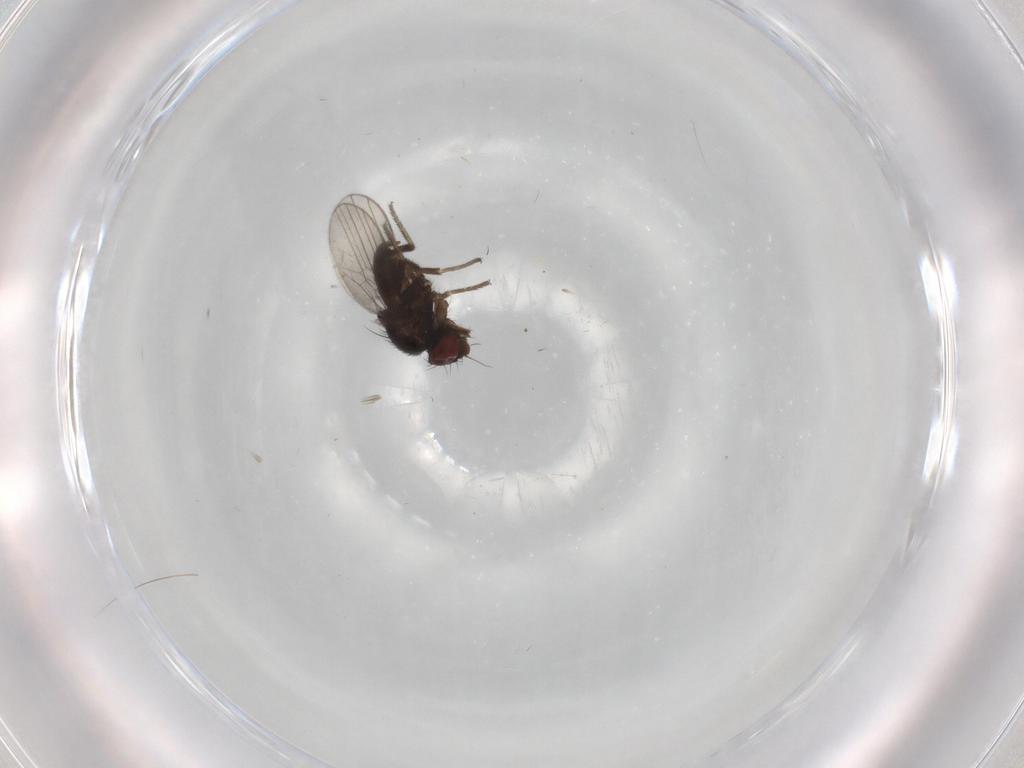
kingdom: Animalia
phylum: Arthropoda
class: Insecta
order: Diptera
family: Milichiidae
